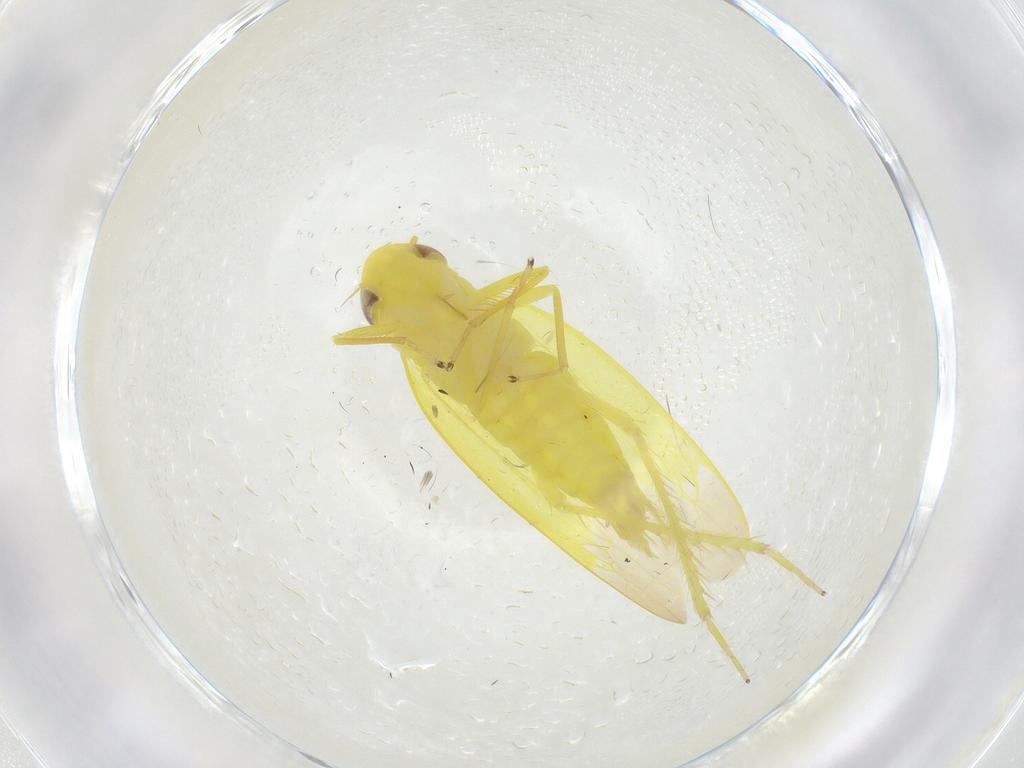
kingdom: Animalia
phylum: Arthropoda
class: Insecta
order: Hemiptera
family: Cicadellidae
